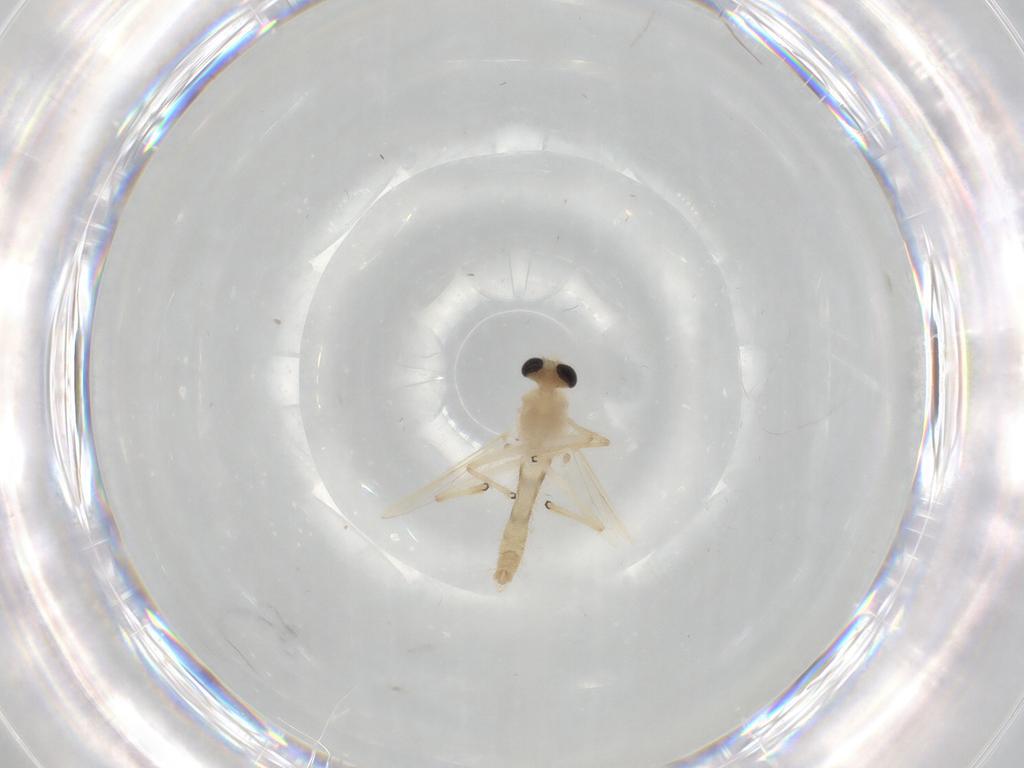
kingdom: Animalia
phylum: Arthropoda
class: Insecta
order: Diptera
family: Chironomidae
